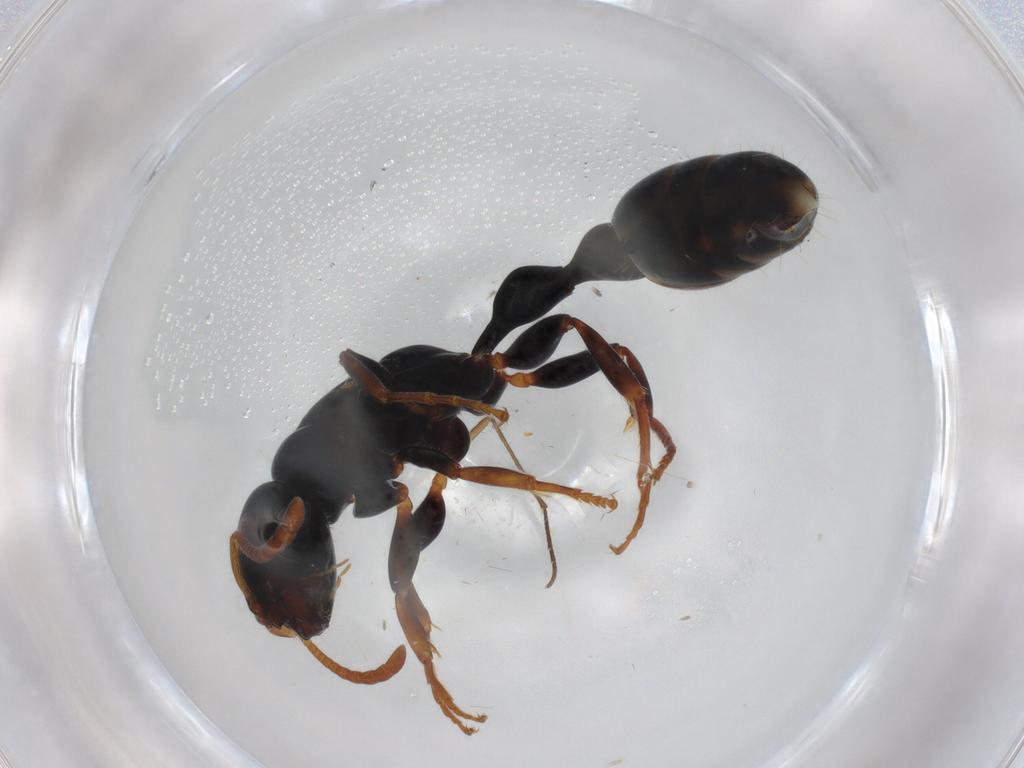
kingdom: Animalia
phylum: Arthropoda
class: Insecta
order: Hymenoptera
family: Formicidae
